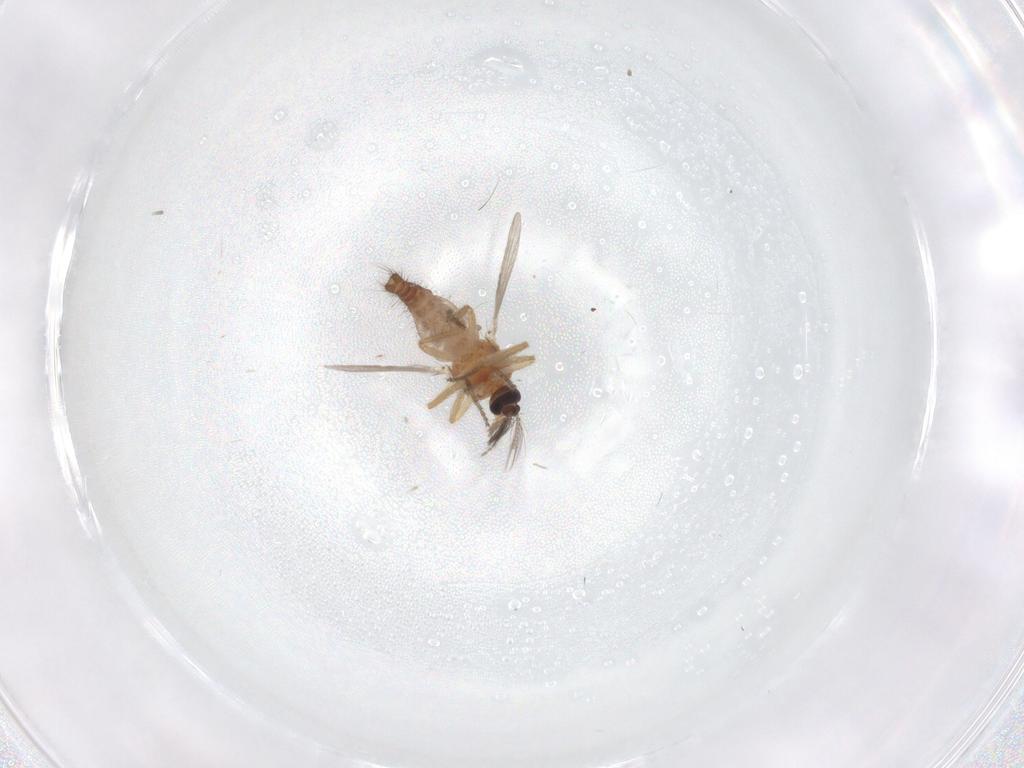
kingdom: Animalia
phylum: Arthropoda
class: Insecta
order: Diptera
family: Ceratopogonidae
